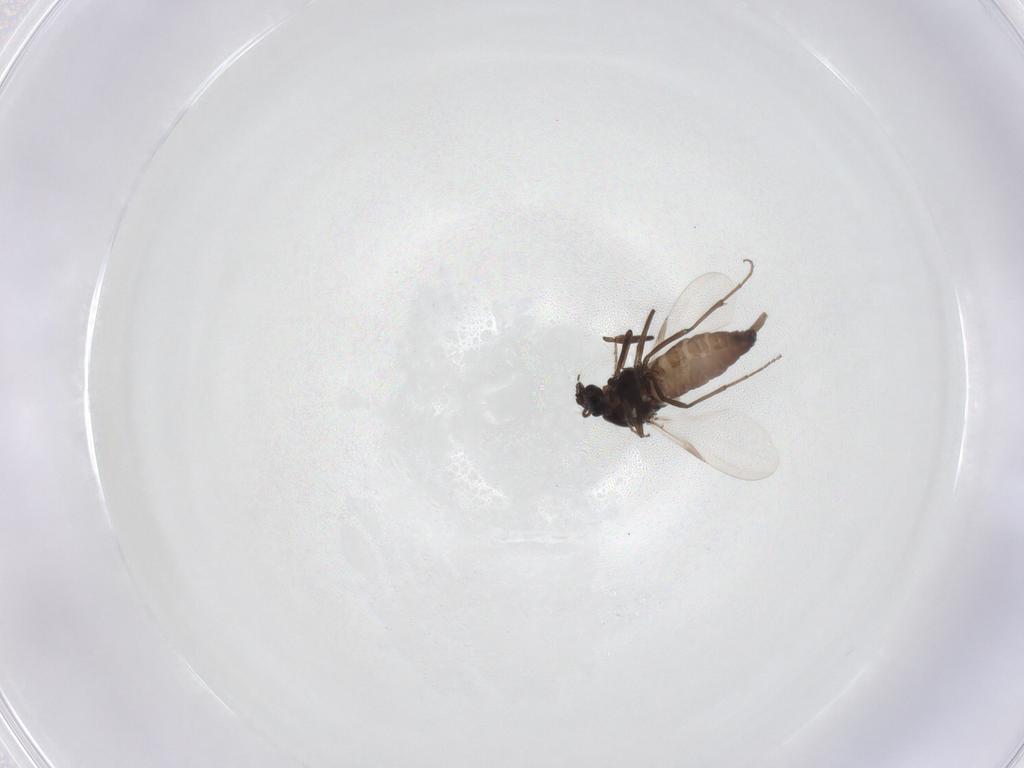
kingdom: Animalia
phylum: Arthropoda
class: Insecta
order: Diptera
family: Ceratopogonidae
